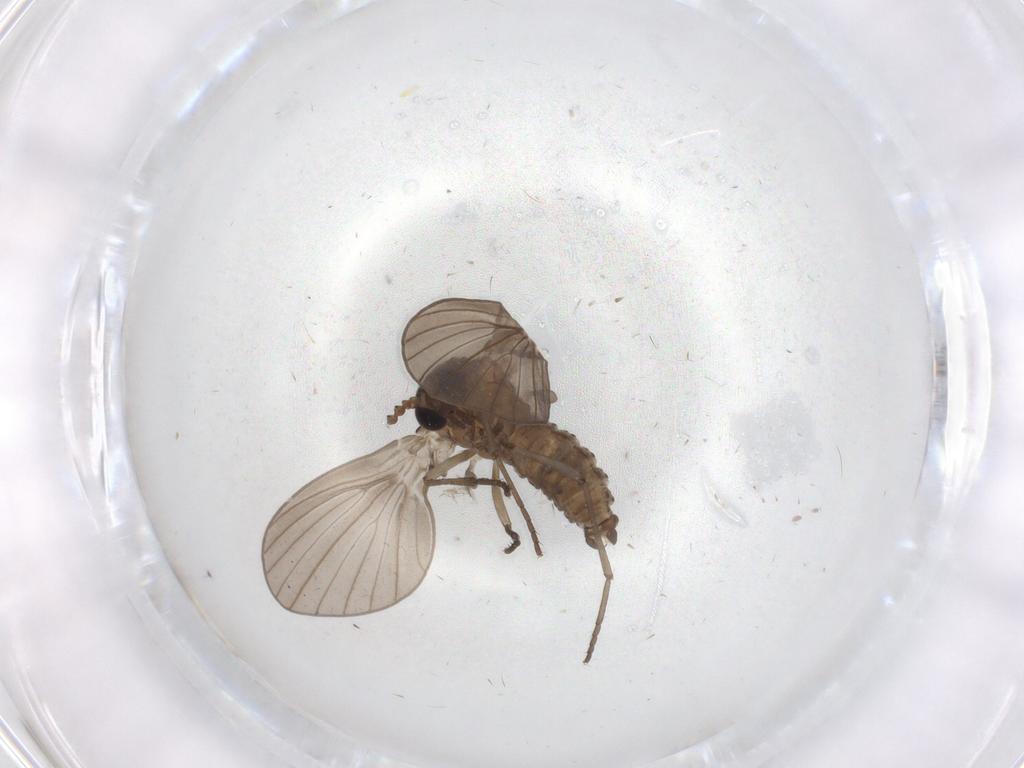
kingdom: Animalia
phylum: Arthropoda
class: Insecta
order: Diptera
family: Psychodidae
